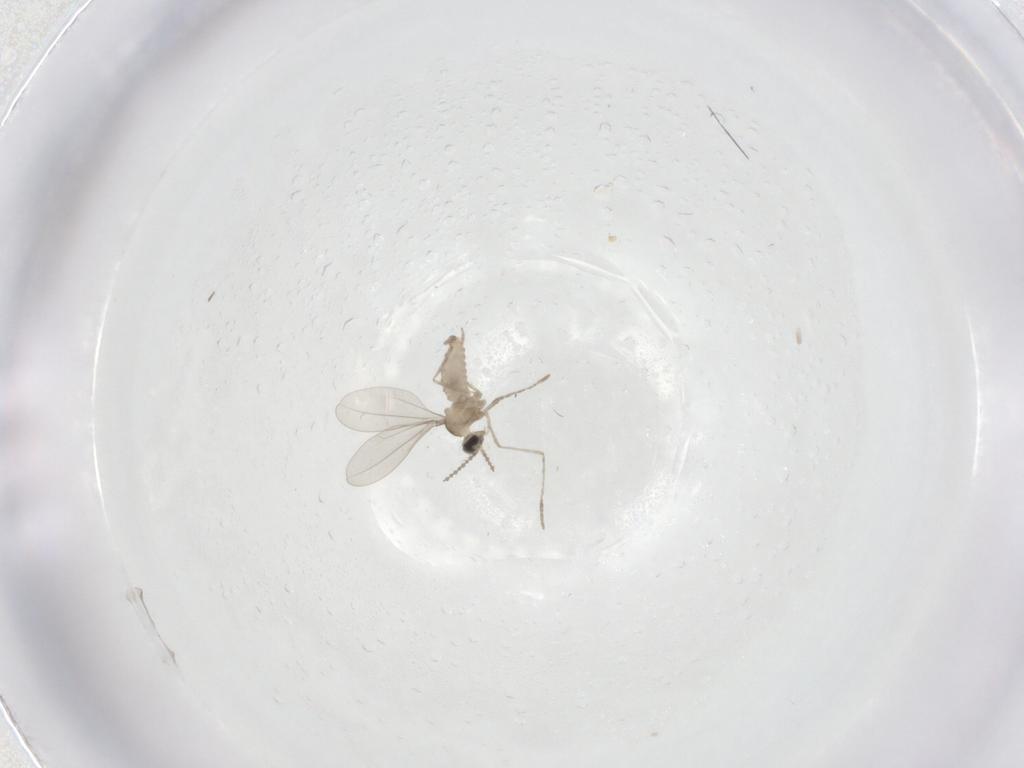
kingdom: Animalia
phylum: Arthropoda
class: Insecta
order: Diptera
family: Cecidomyiidae
